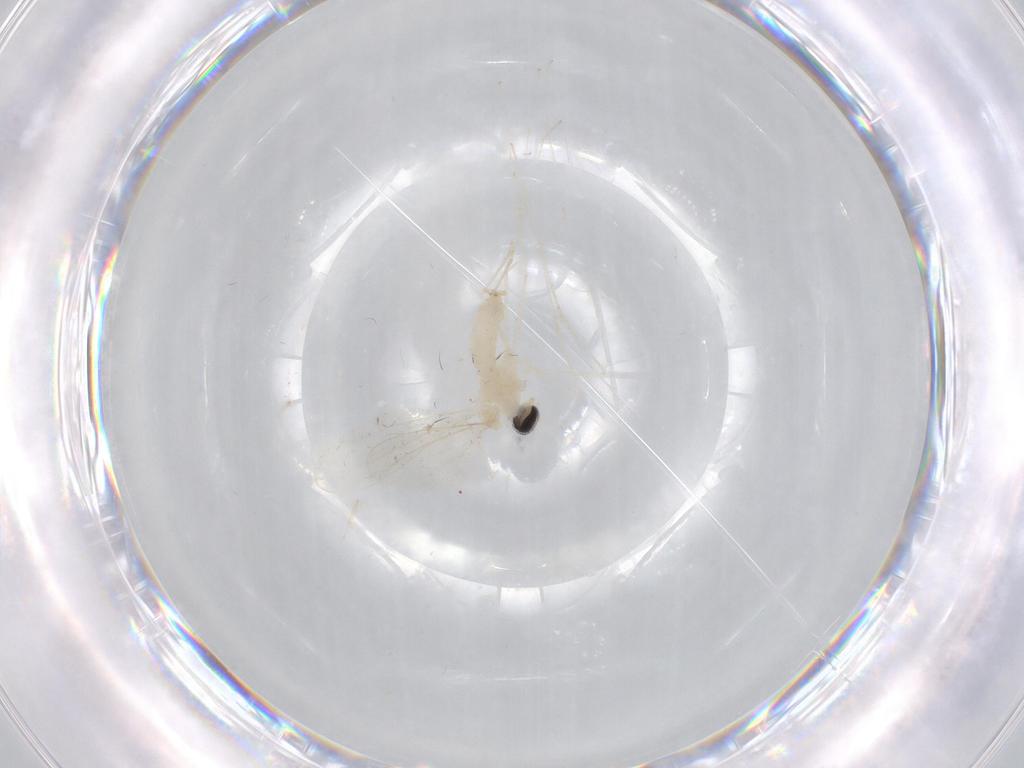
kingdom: Animalia
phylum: Arthropoda
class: Insecta
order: Diptera
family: Cecidomyiidae
